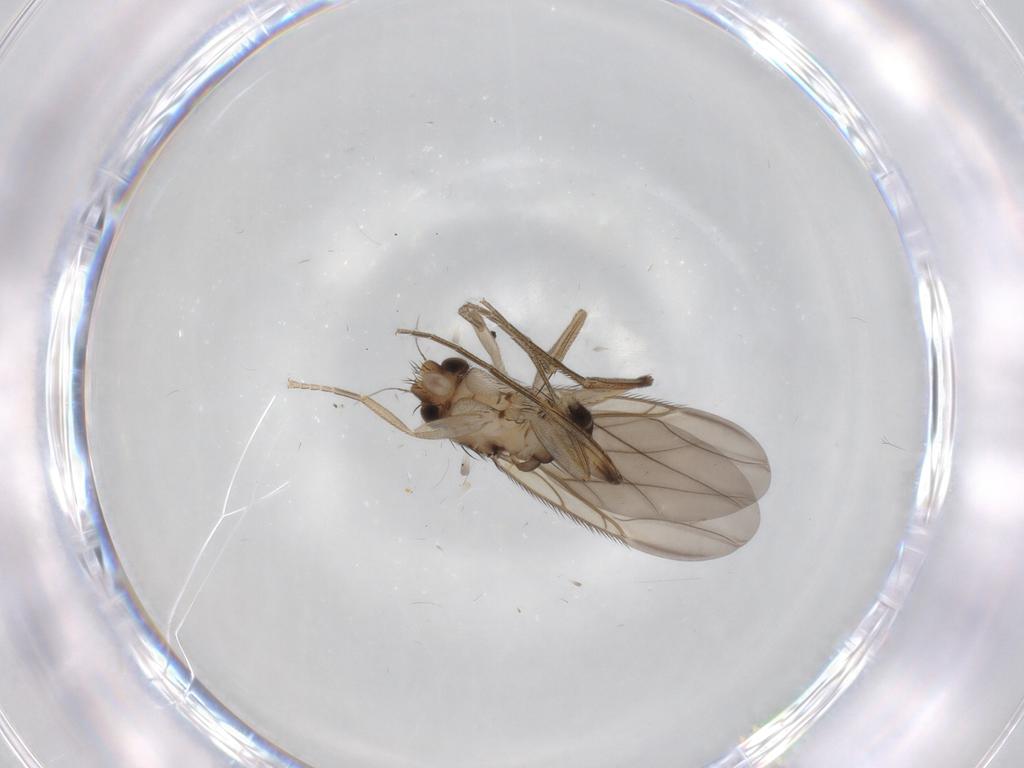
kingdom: Animalia
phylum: Arthropoda
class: Insecta
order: Diptera
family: Phoridae
